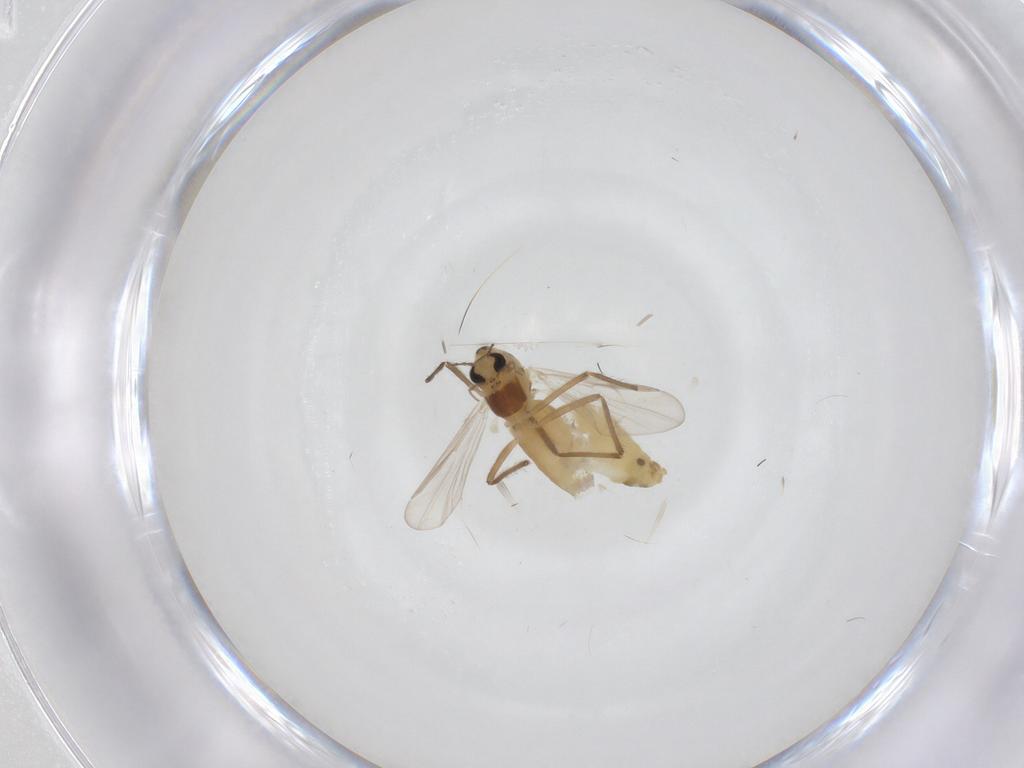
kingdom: Animalia
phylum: Arthropoda
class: Insecta
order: Diptera
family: Chironomidae
